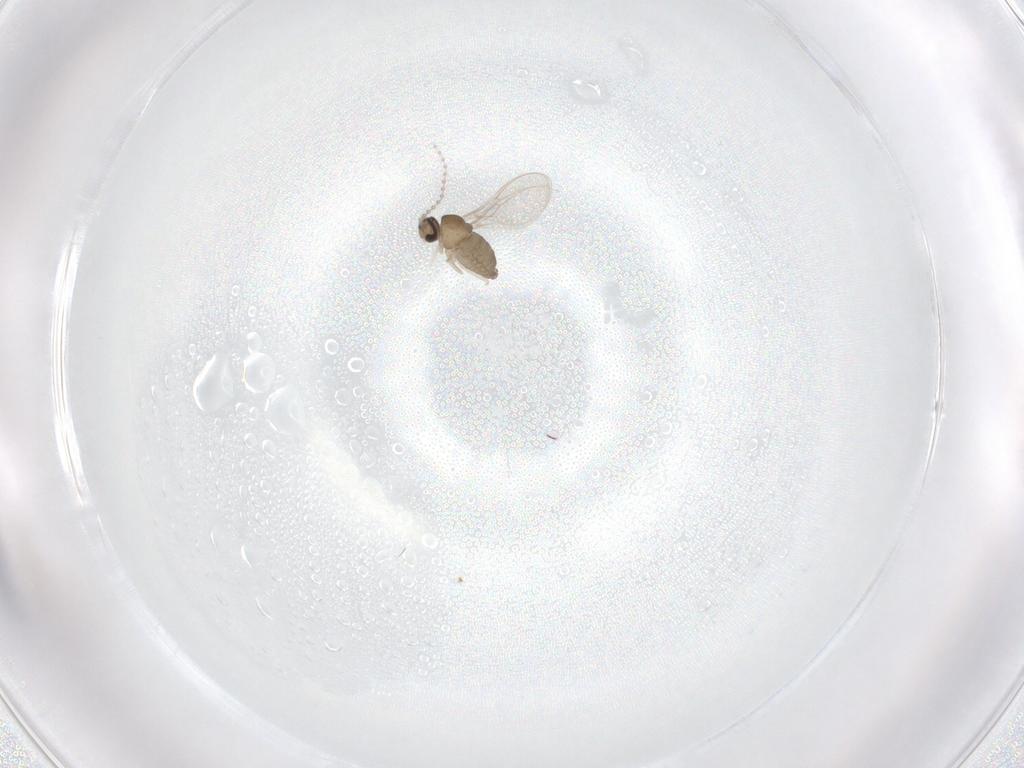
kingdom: Animalia
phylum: Arthropoda
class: Insecta
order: Diptera
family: Cecidomyiidae
